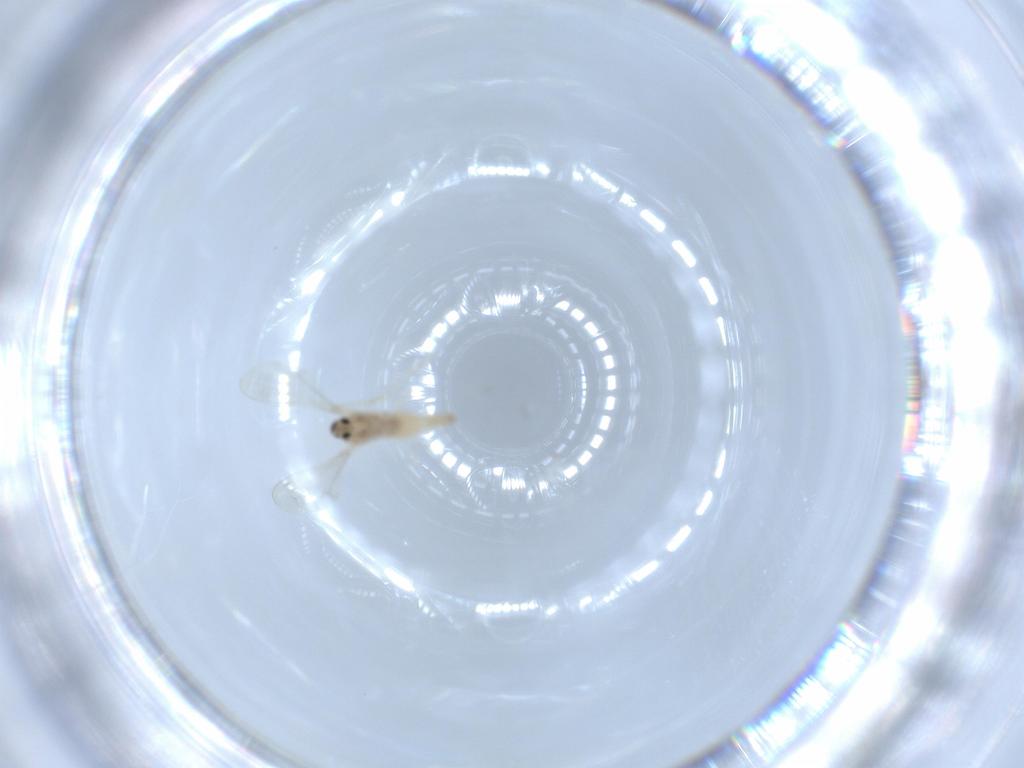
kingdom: Animalia
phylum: Arthropoda
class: Insecta
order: Diptera
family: Cecidomyiidae
